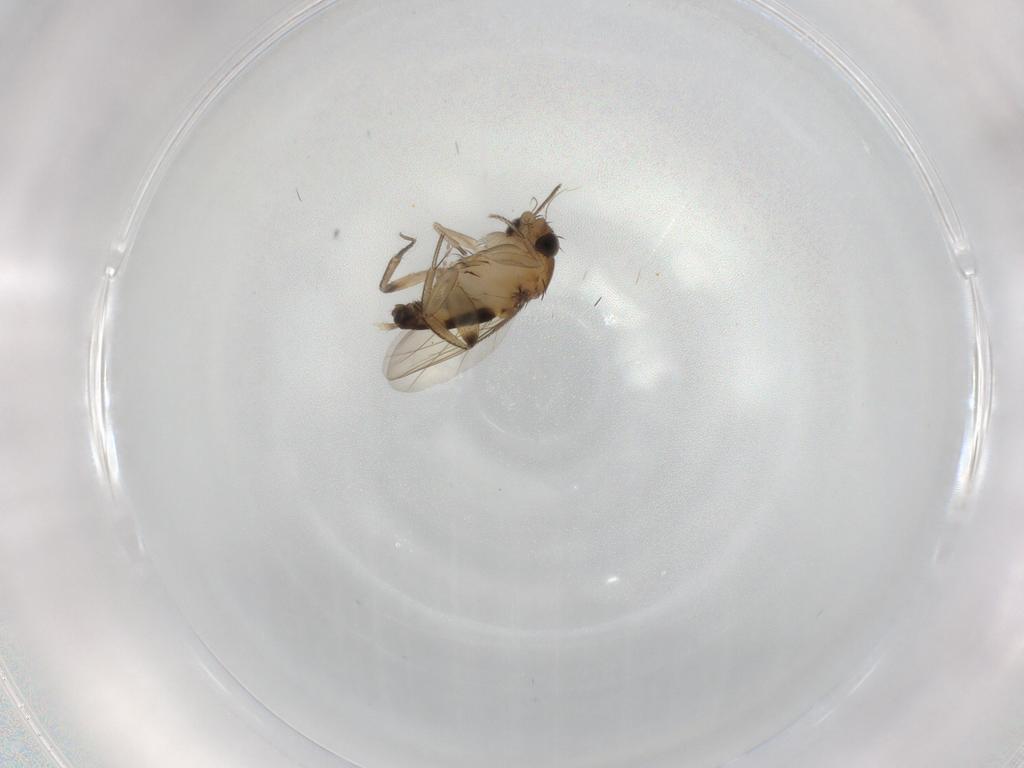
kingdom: Animalia
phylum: Arthropoda
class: Insecta
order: Diptera
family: Phoridae
